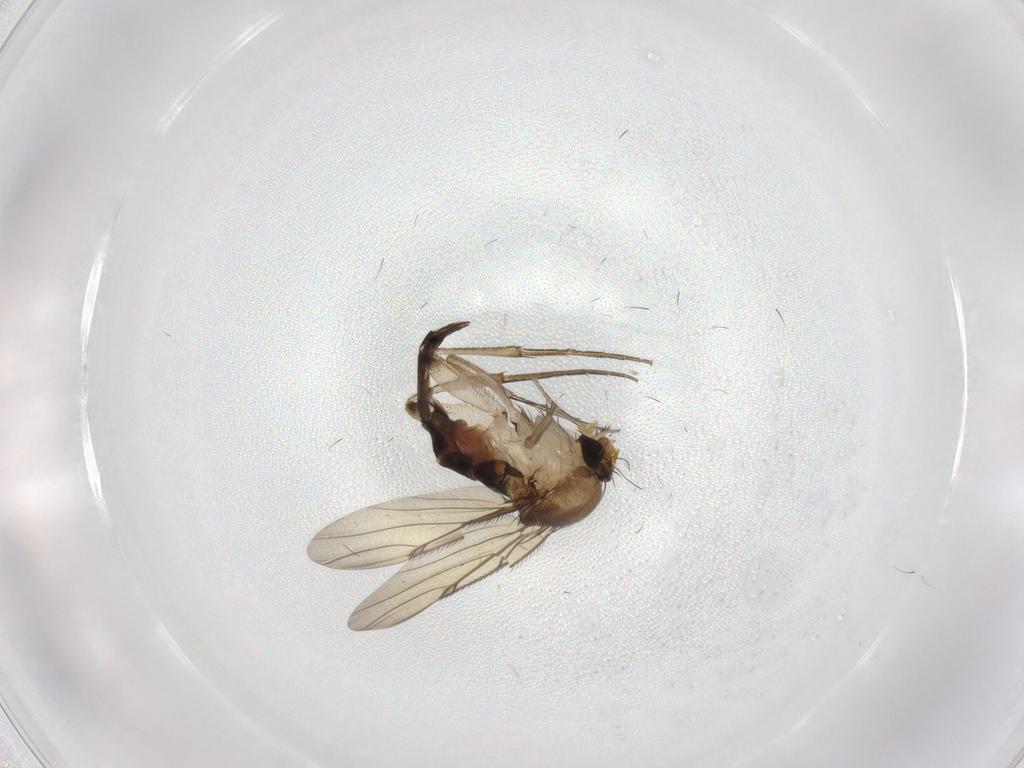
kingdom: Animalia
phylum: Arthropoda
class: Insecta
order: Diptera
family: Phoridae
